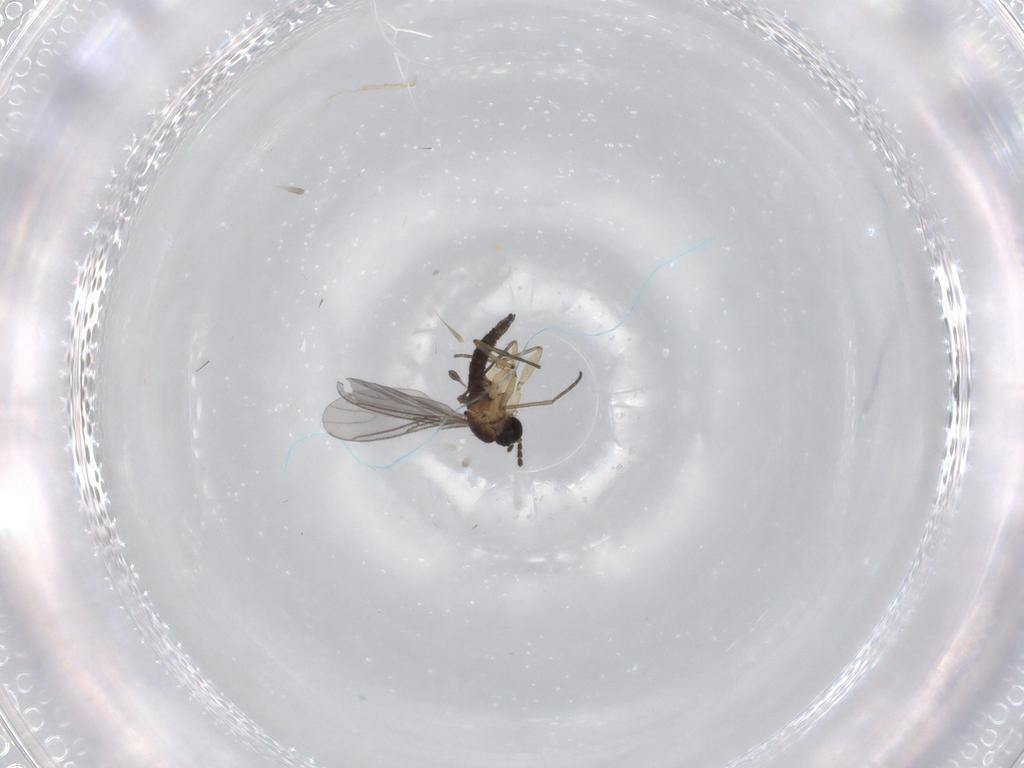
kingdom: Animalia
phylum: Arthropoda
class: Insecta
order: Diptera
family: Sciaridae
